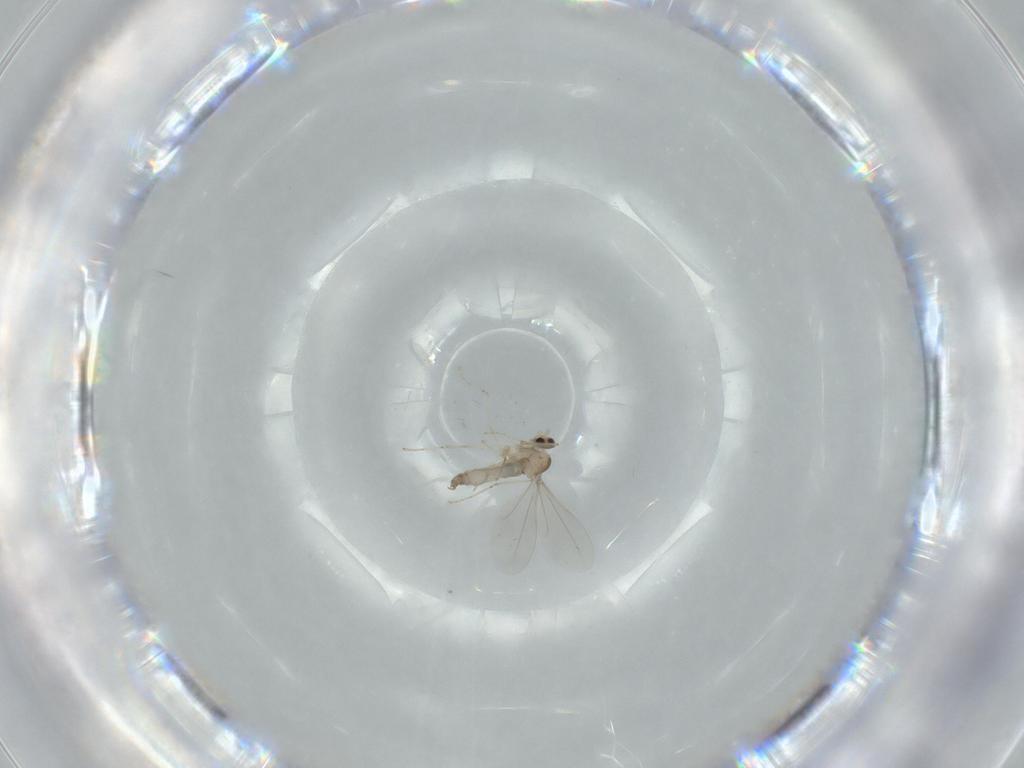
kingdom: Animalia
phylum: Arthropoda
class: Insecta
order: Diptera
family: Cecidomyiidae
